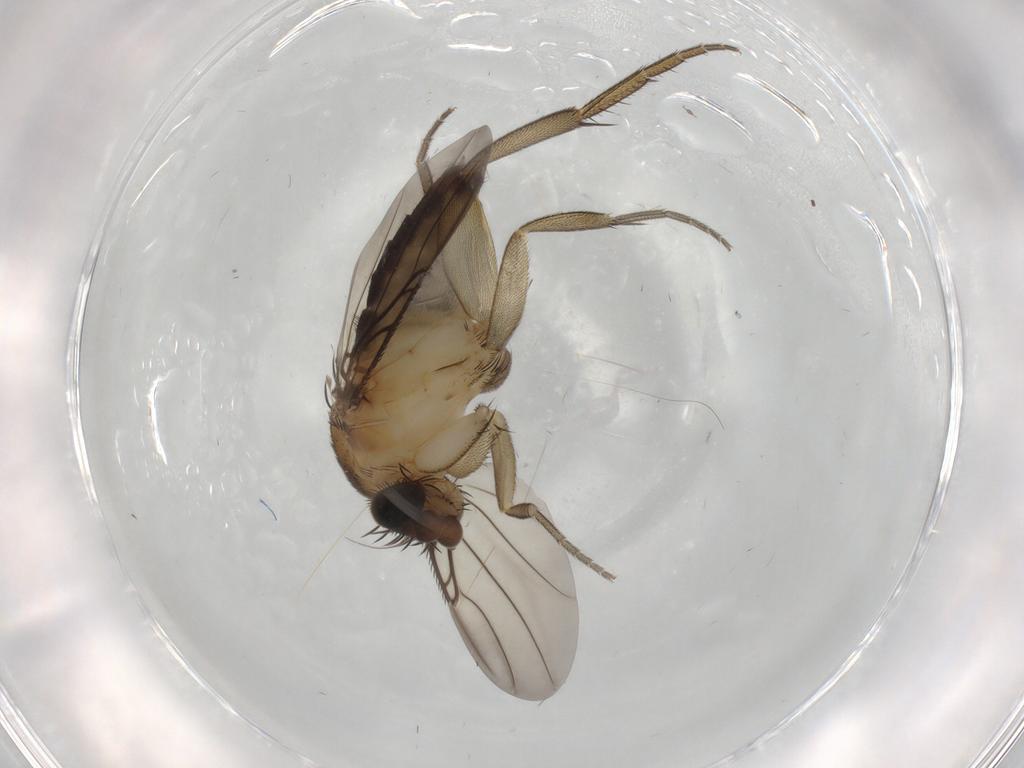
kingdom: Animalia
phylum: Arthropoda
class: Insecta
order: Diptera
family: Phoridae
